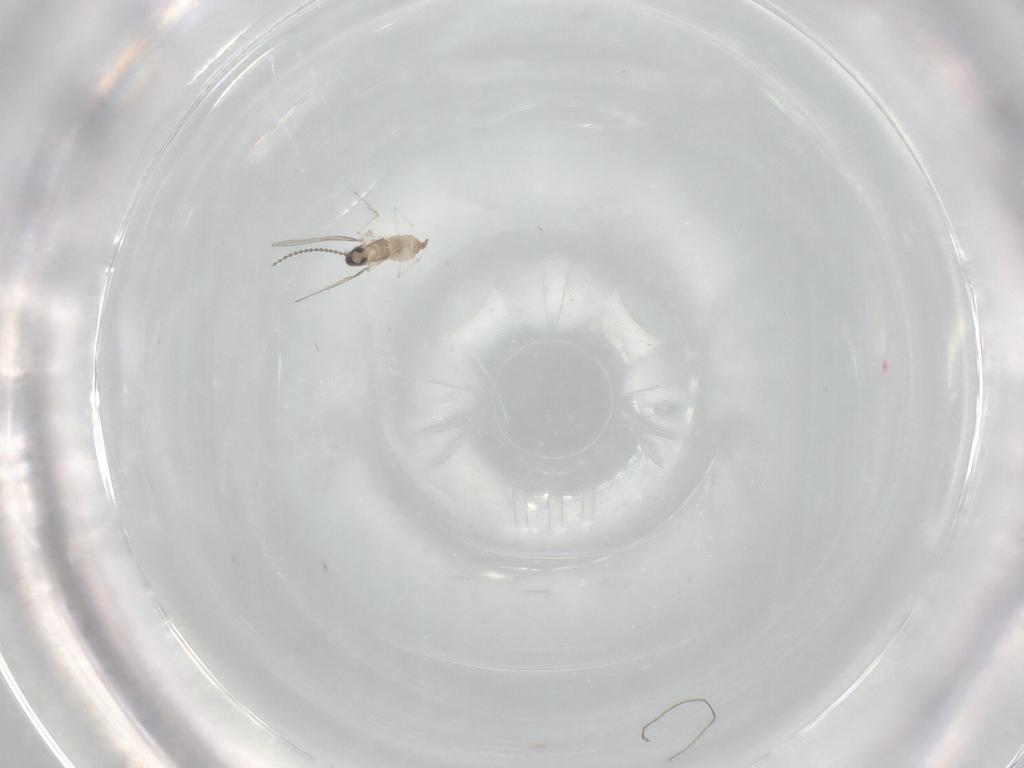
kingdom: Animalia
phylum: Arthropoda
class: Insecta
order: Diptera
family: Cecidomyiidae
